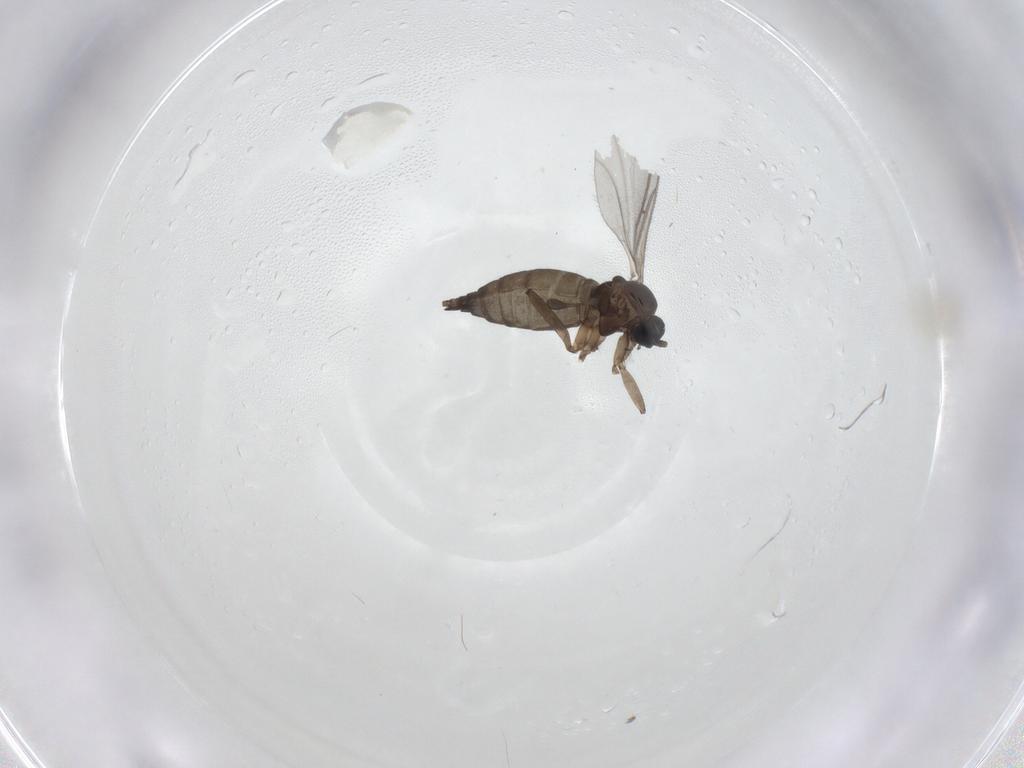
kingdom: Animalia
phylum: Arthropoda
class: Insecta
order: Diptera
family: Sciaridae
